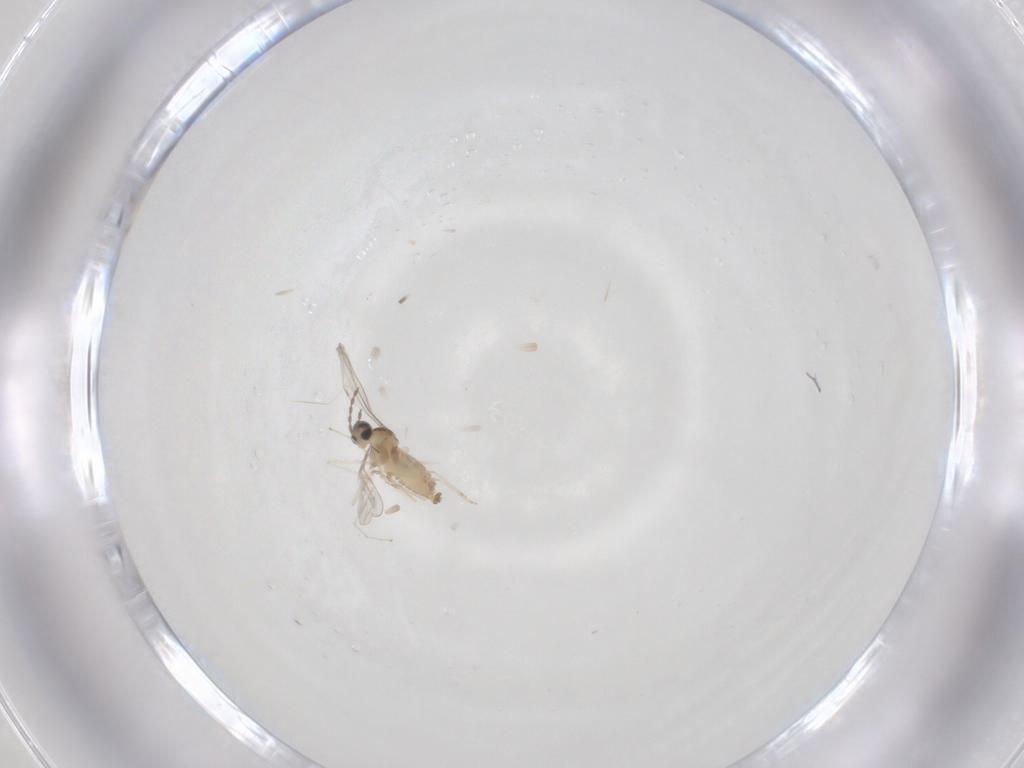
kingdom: Animalia
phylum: Arthropoda
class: Insecta
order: Diptera
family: Cecidomyiidae
